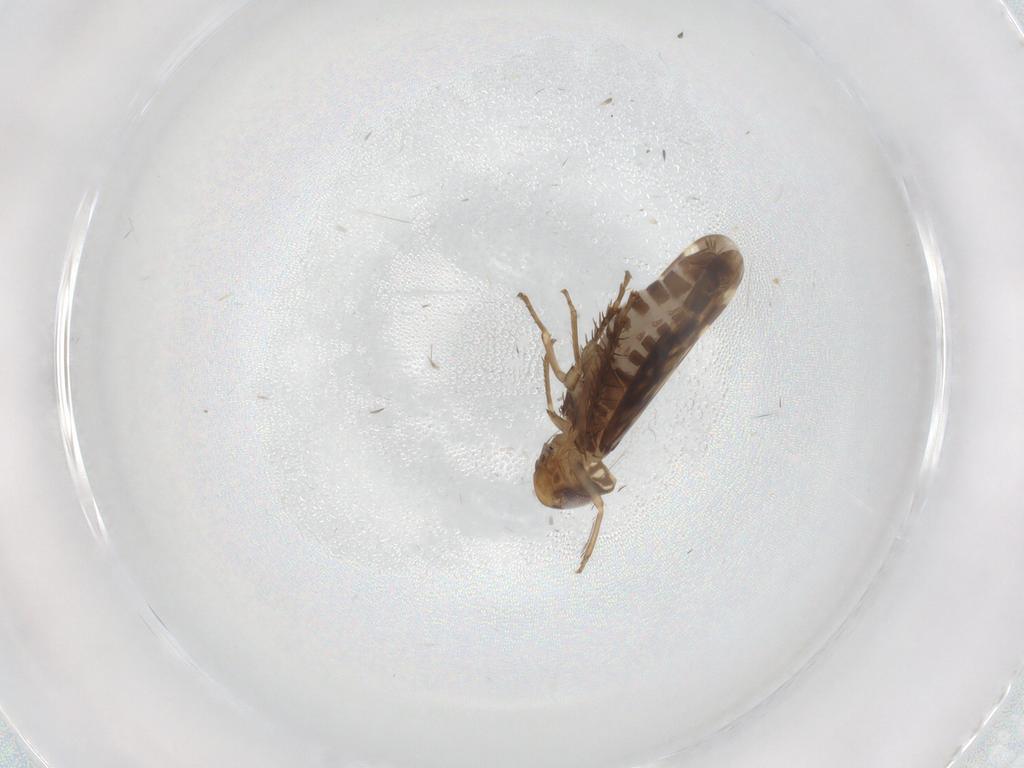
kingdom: Animalia
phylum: Arthropoda
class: Insecta
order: Hemiptera
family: Cicadellidae
